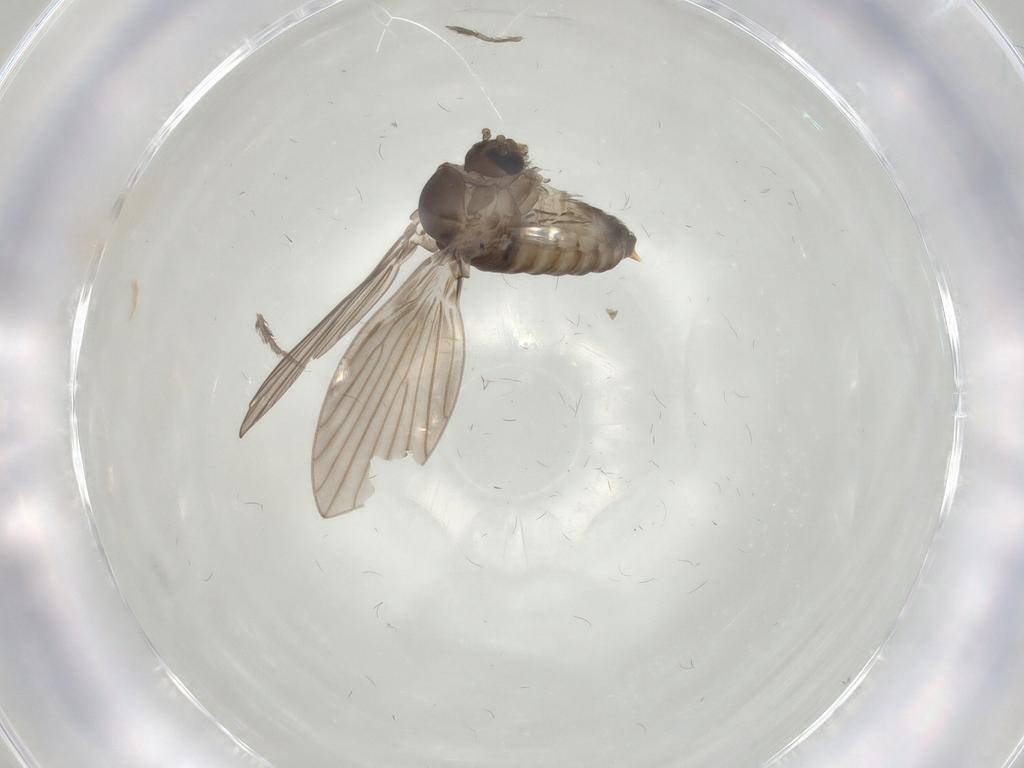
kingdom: Animalia
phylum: Arthropoda
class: Insecta
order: Diptera
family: Psychodidae
